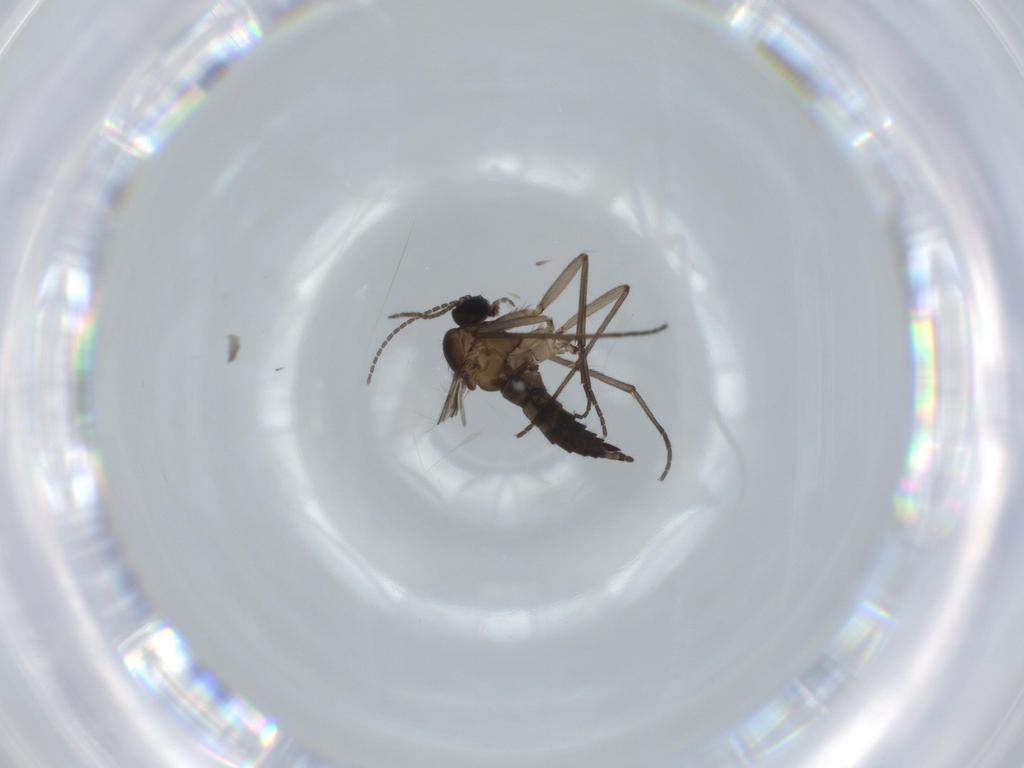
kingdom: Animalia
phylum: Arthropoda
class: Insecta
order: Diptera
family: Sciaridae
